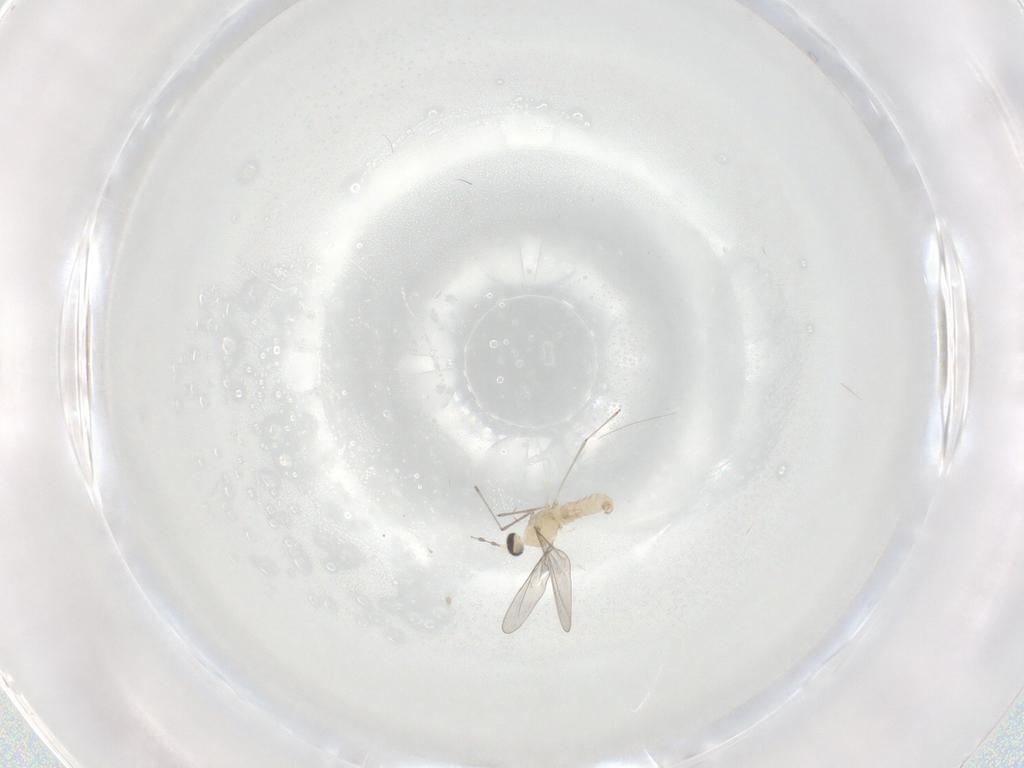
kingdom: Animalia
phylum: Arthropoda
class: Insecta
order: Diptera
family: Cecidomyiidae
